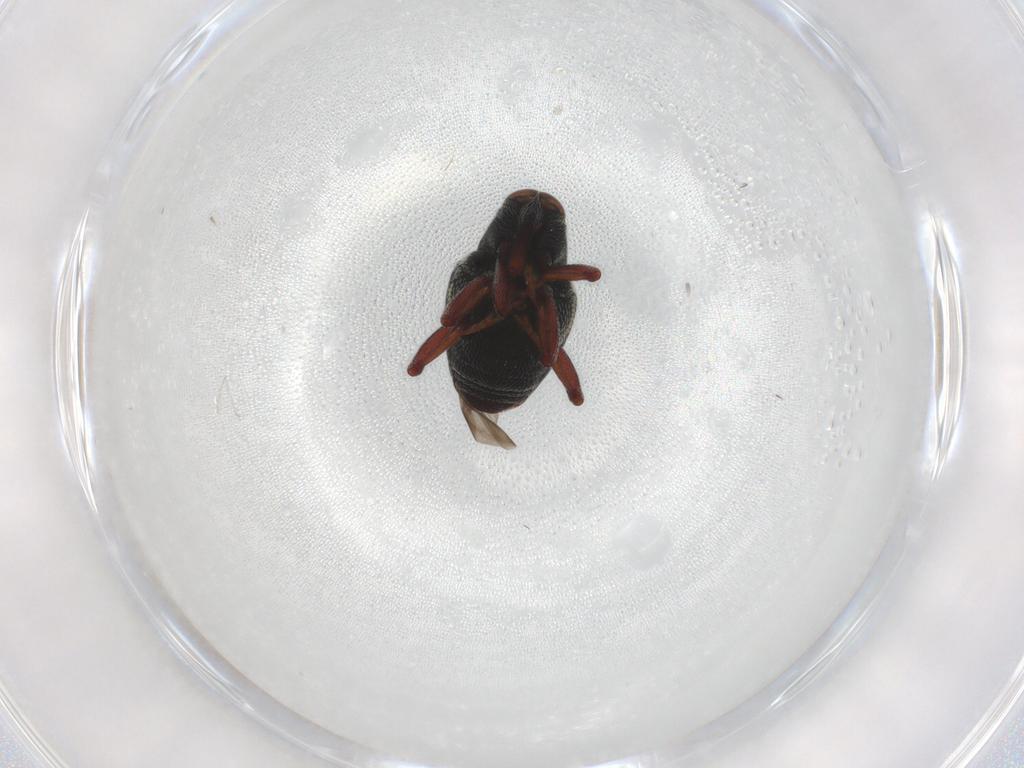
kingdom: Animalia
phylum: Arthropoda
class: Insecta
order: Coleoptera
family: Curculionidae
